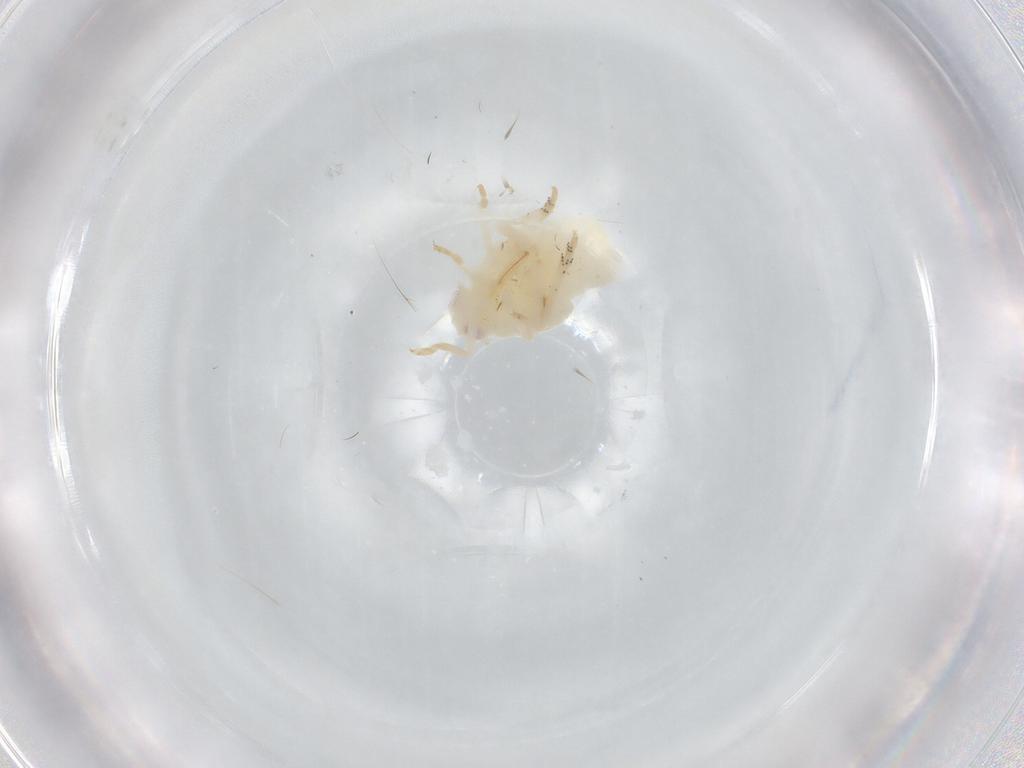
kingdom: Animalia
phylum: Arthropoda
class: Insecta
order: Hemiptera
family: Ricaniidae
